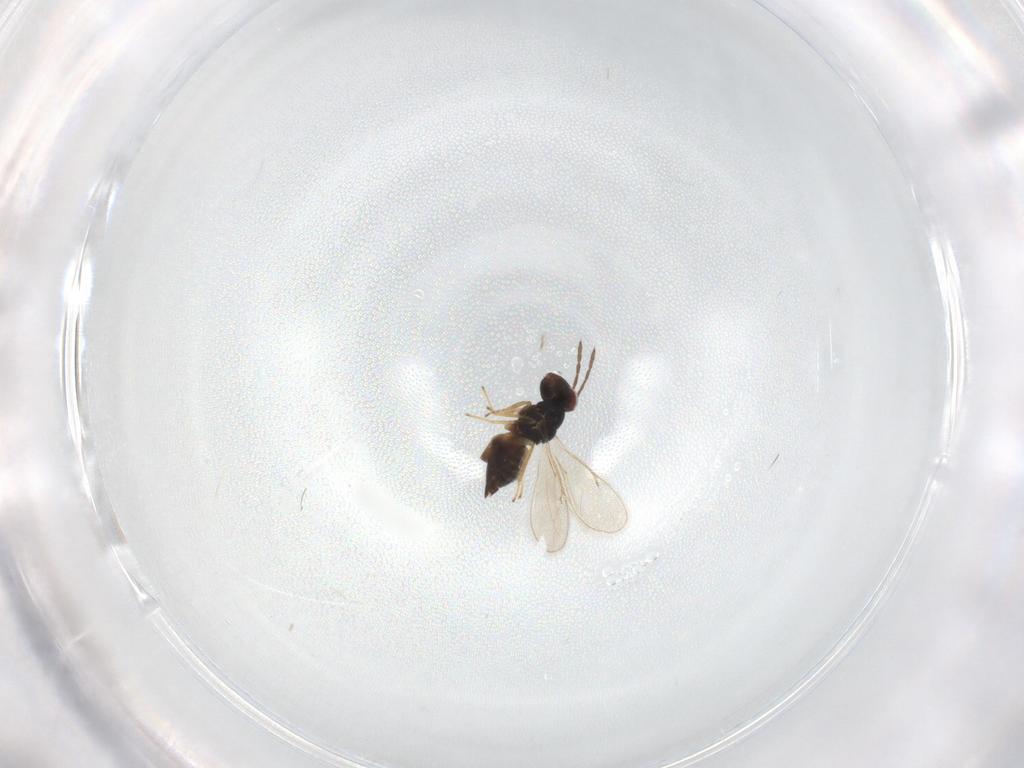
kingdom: Animalia
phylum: Arthropoda
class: Insecta
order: Hymenoptera
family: Eulophidae
